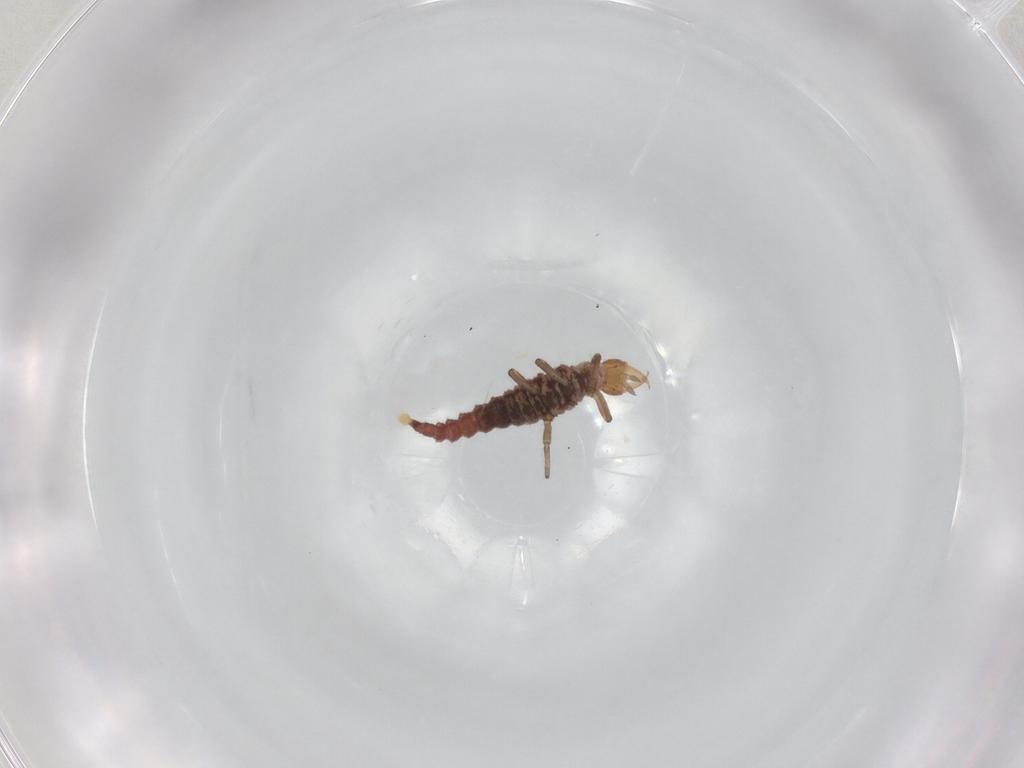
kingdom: Animalia
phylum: Arthropoda
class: Insecta
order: Neuroptera
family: Hemerobiidae
